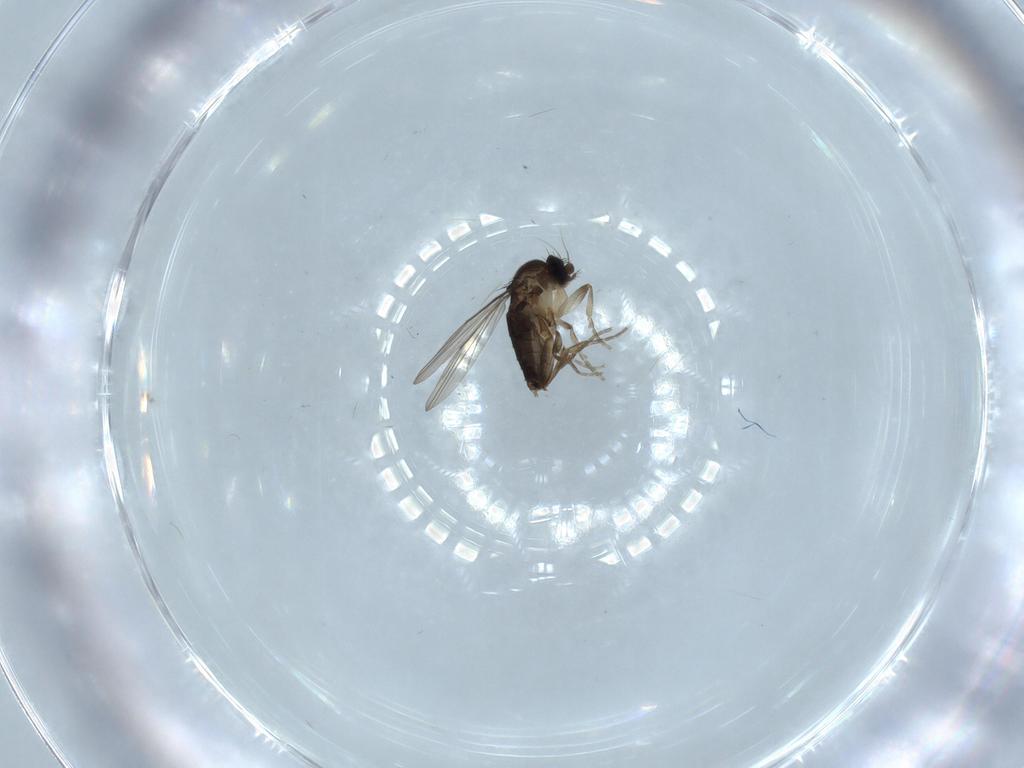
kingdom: Animalia
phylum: Arthropoda
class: Insecta
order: Diptera
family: Phoridae
